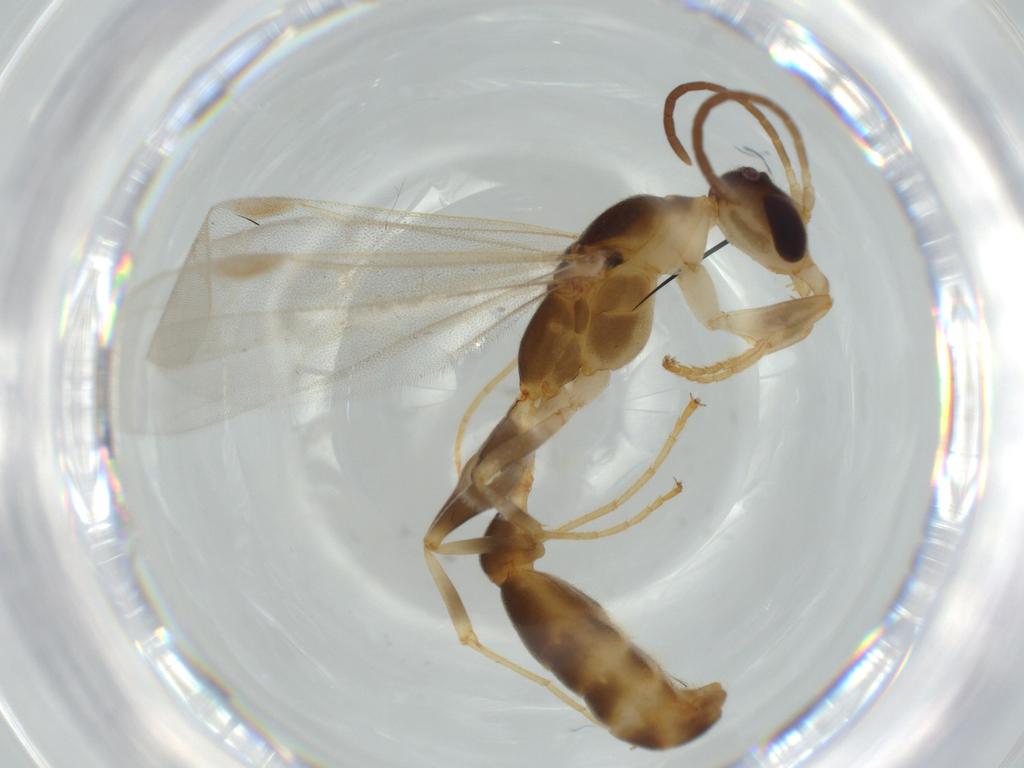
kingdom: Animalia
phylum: Arthropoda
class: Insecta
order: Hymenoptera
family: Formicidae
